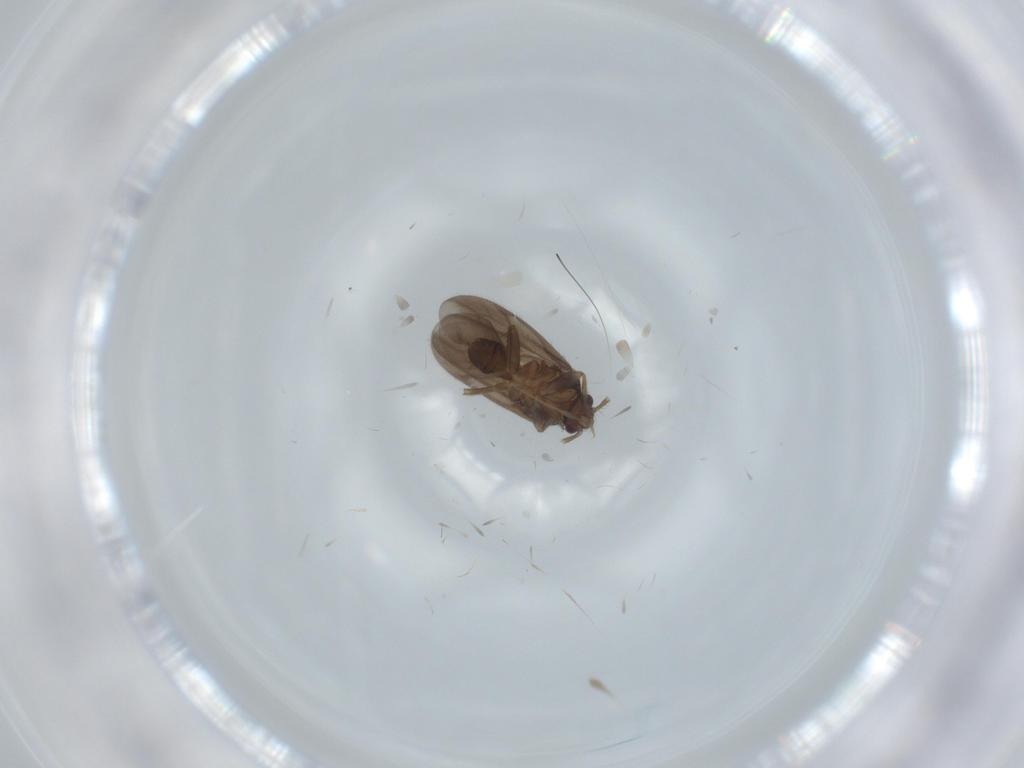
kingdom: Animalia
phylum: Arthropoda
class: Insecta
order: Hemiptera
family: Ceratocombidae
